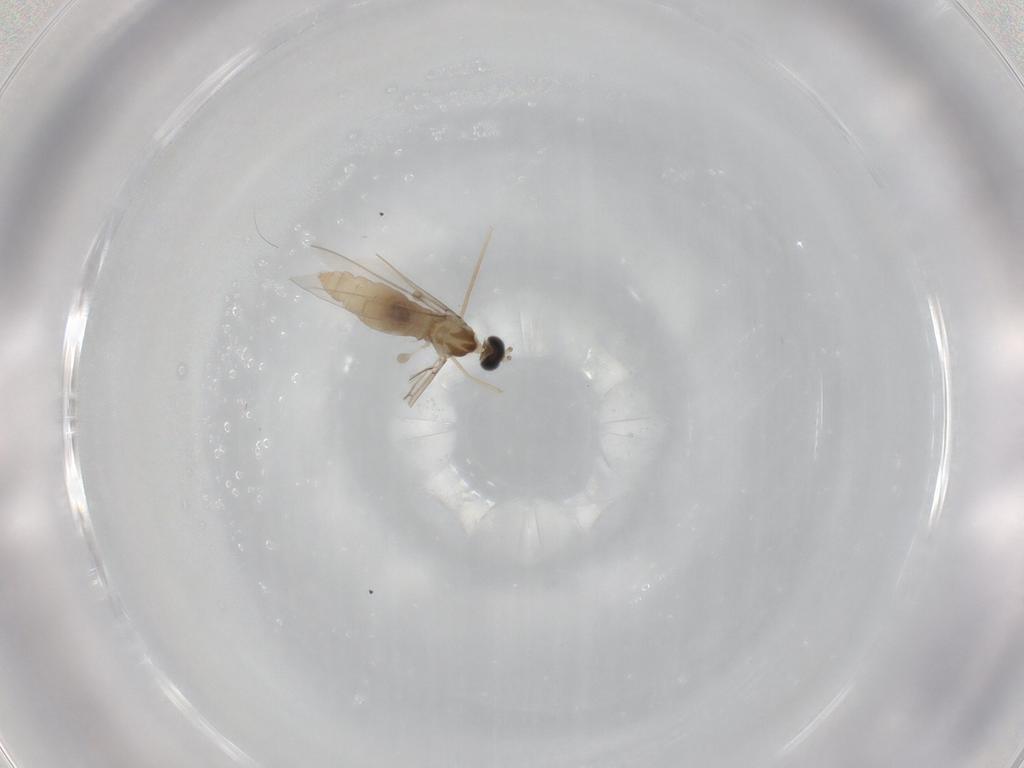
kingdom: Animalia
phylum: Arthropoda
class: Insecta
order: Diptera
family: Cecidomyiidae
